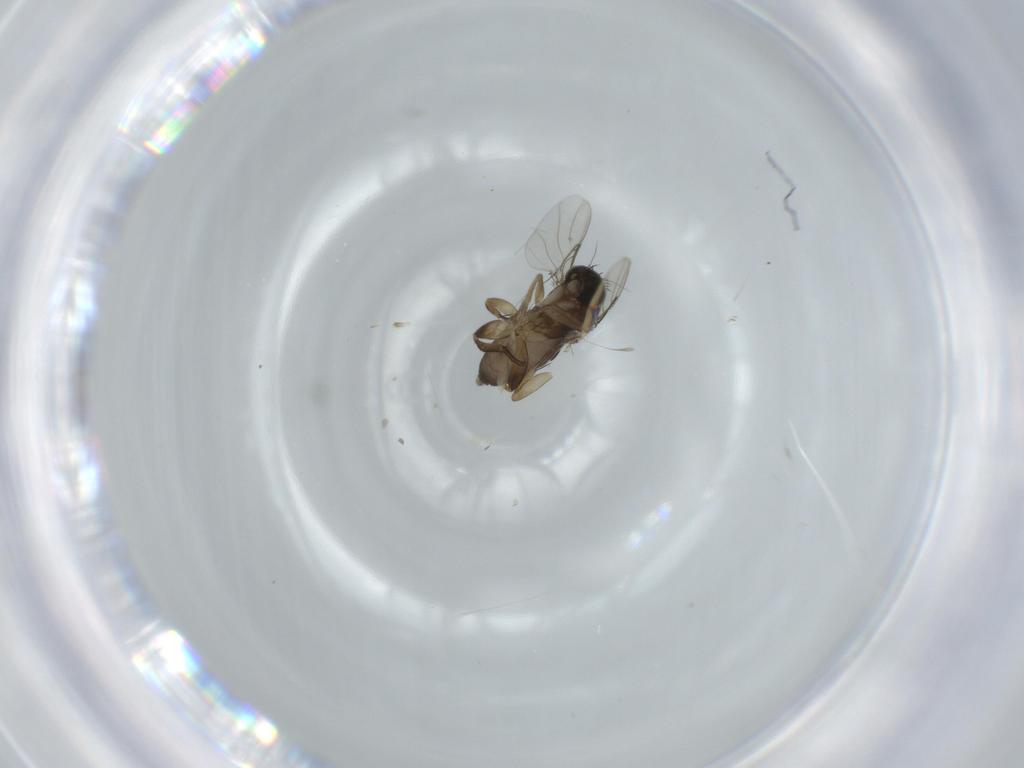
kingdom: Animalia
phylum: Arthropoda
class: Insecta
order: Diptera
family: Phoridae
